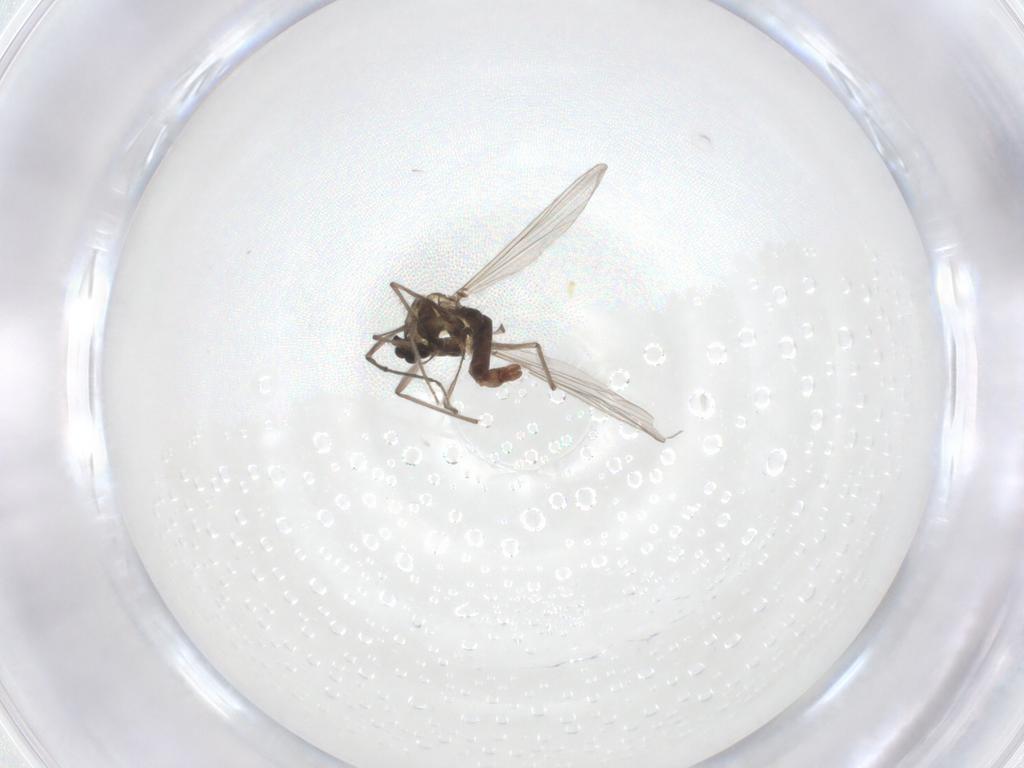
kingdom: Animalia
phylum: Arthropoda
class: Insecta
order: Diptera
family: Chironomidae
